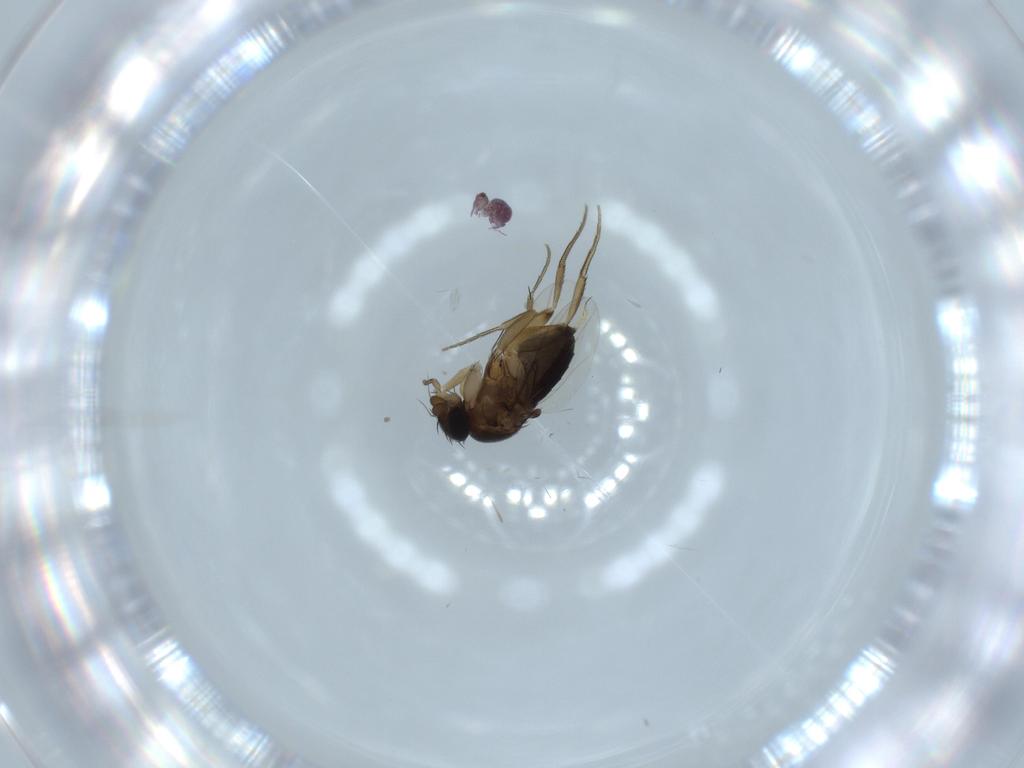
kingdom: Animalia
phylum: Arthropoda
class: Insecta
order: Diptera
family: Phoridae
